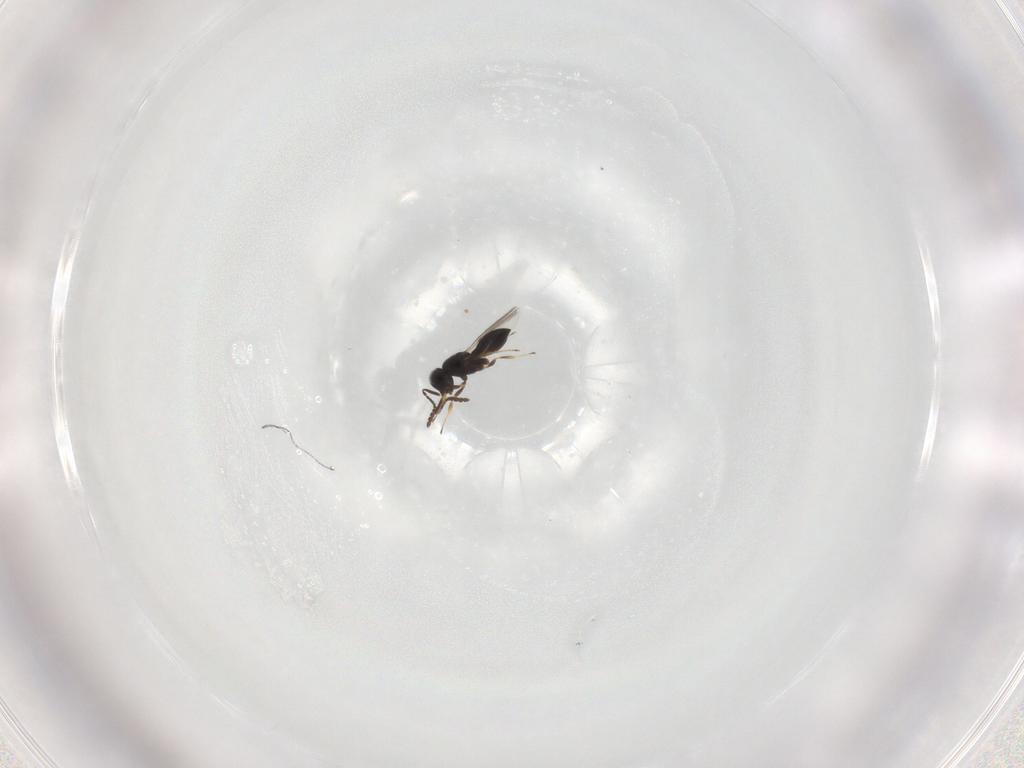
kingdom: Animalia
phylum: Arthropoda
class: Insecta
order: Hymenoptera
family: Scelionidae
